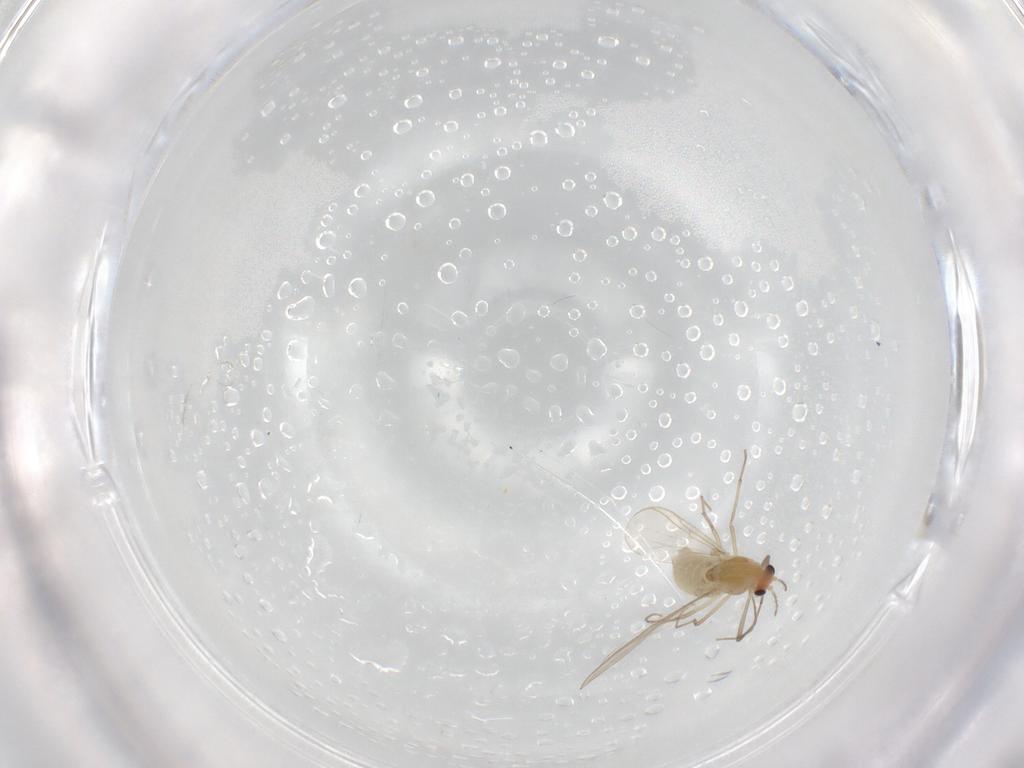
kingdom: Animalia
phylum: Arthropoda
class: Insecta
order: Diptera
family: Chironomidae
